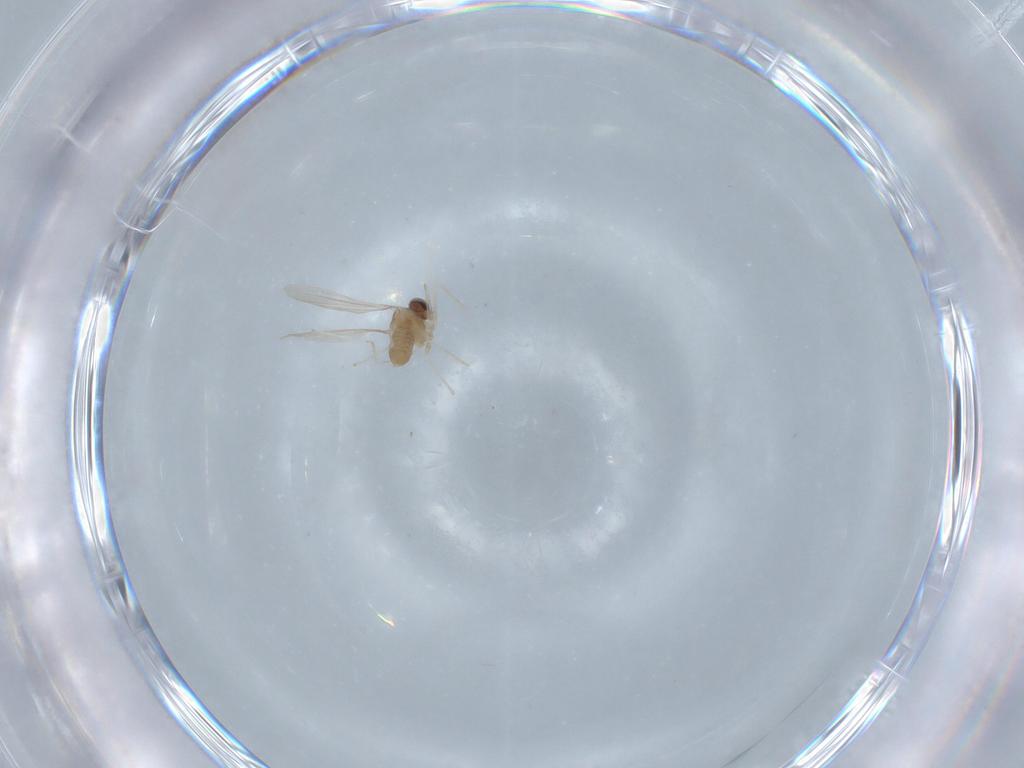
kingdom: Animalia
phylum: Arthropoda
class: Insecta
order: Diptera
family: Cecidomyiidae
